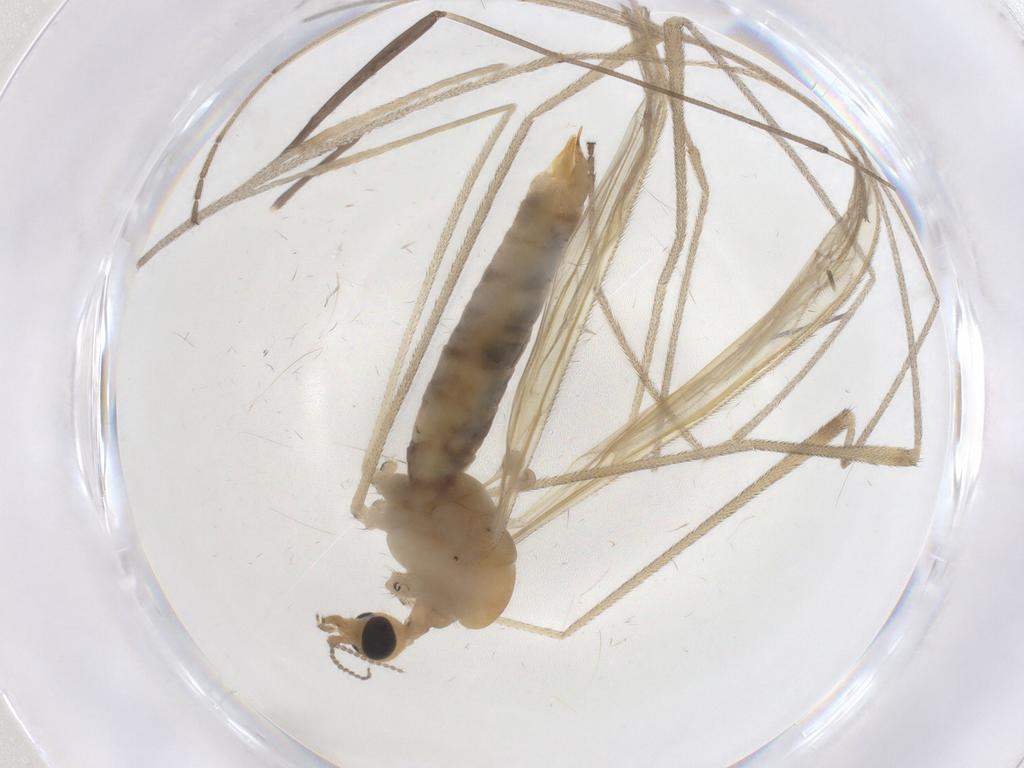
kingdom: Animalia
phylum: Arthropoda
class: Insecta
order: Diptera
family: Limoniidae
